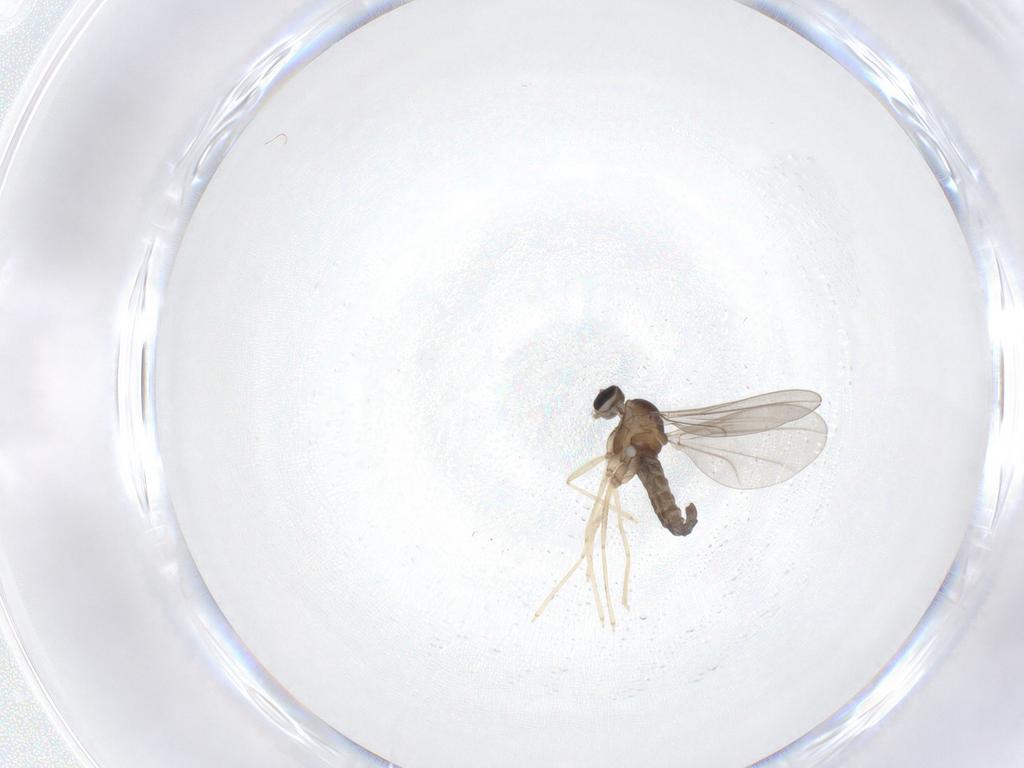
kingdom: Animalia
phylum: Arthropoda
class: Insecta
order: Diptera
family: Cecidomyiidae
